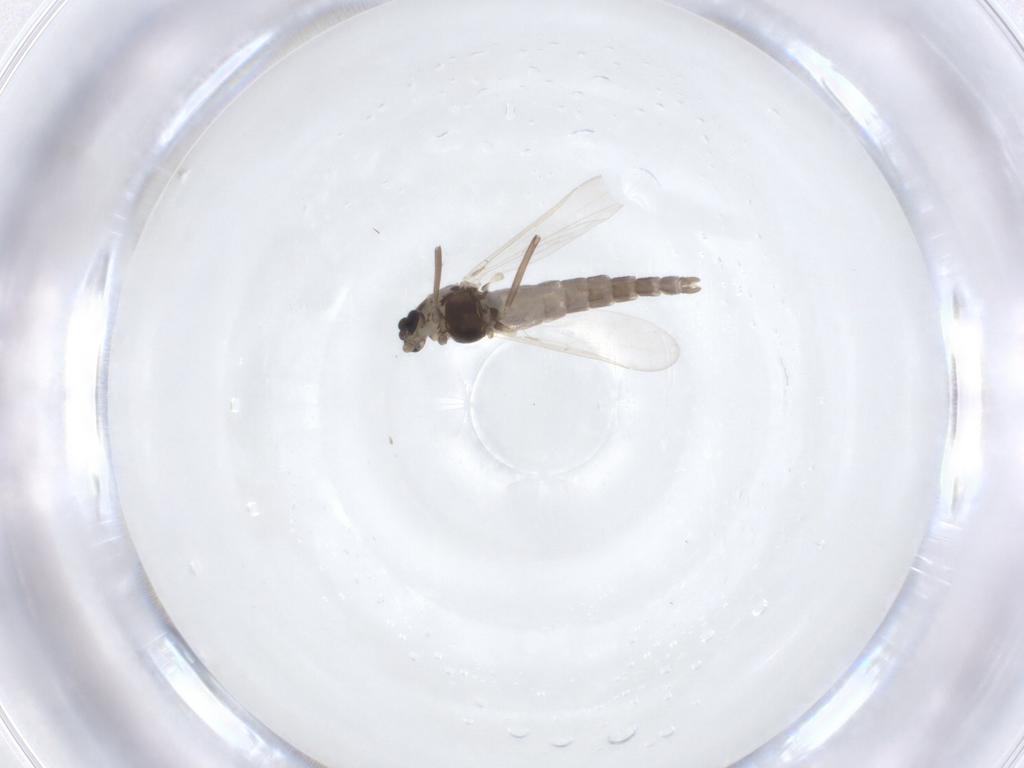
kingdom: Animalia
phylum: Arthropoda
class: Insecta
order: Diptera
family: Chironomidae
